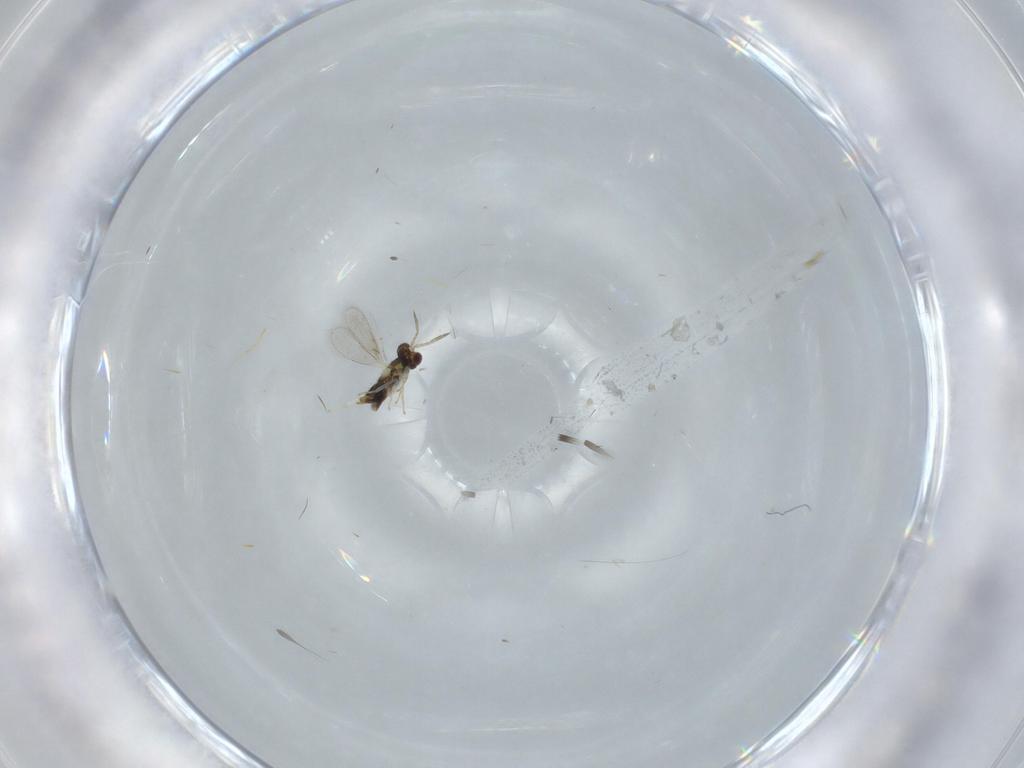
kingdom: Animalia
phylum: Arthropoda
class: Insecta
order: Hymenoptera
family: Aphelinidae
